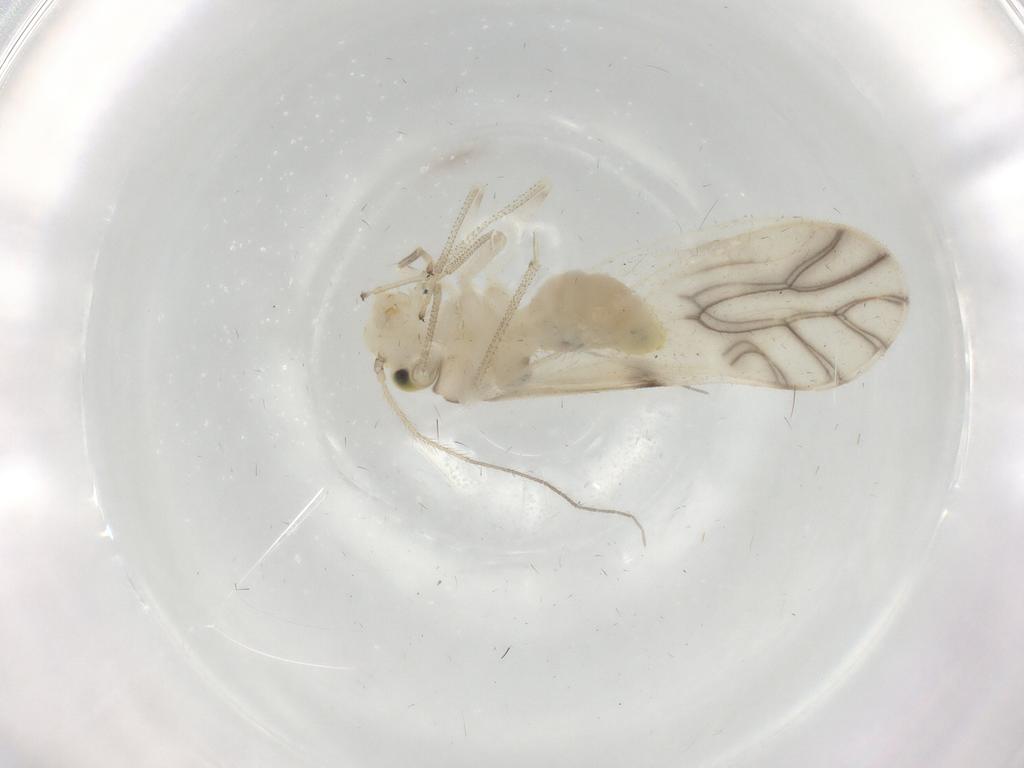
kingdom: Animalia
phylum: Arthropoda
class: Insecta
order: Psocodea
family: Caeciliusidae
